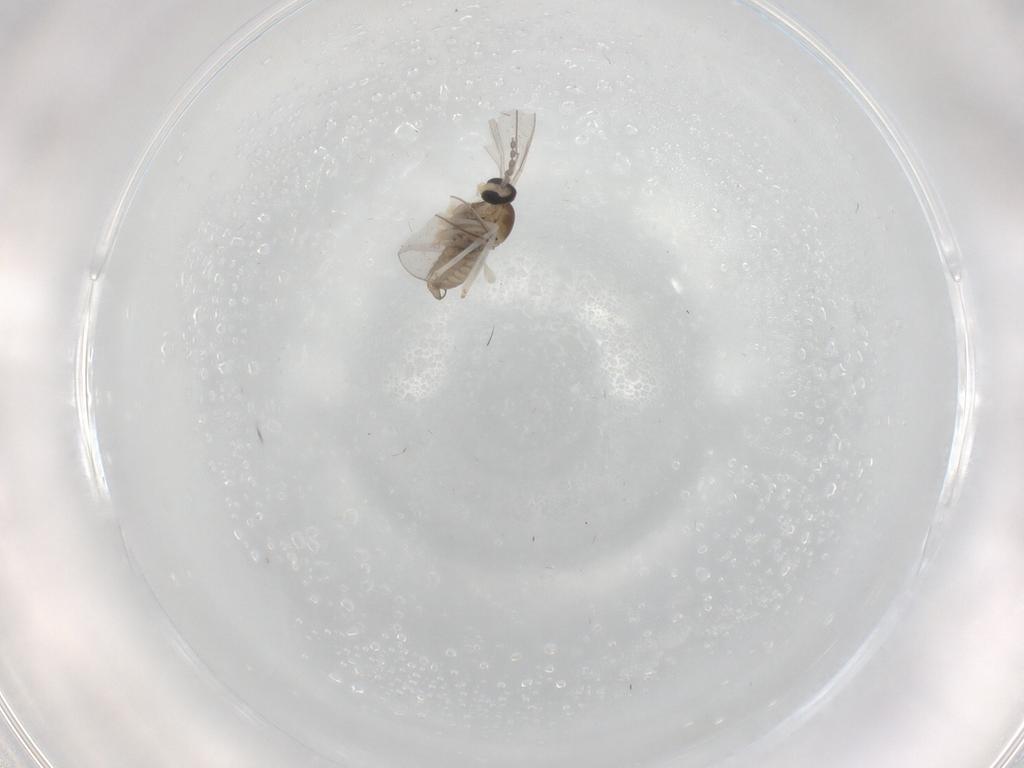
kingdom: Animalia
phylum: Arthropoda
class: Insecta
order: Diptera
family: Cecidomyiidae
